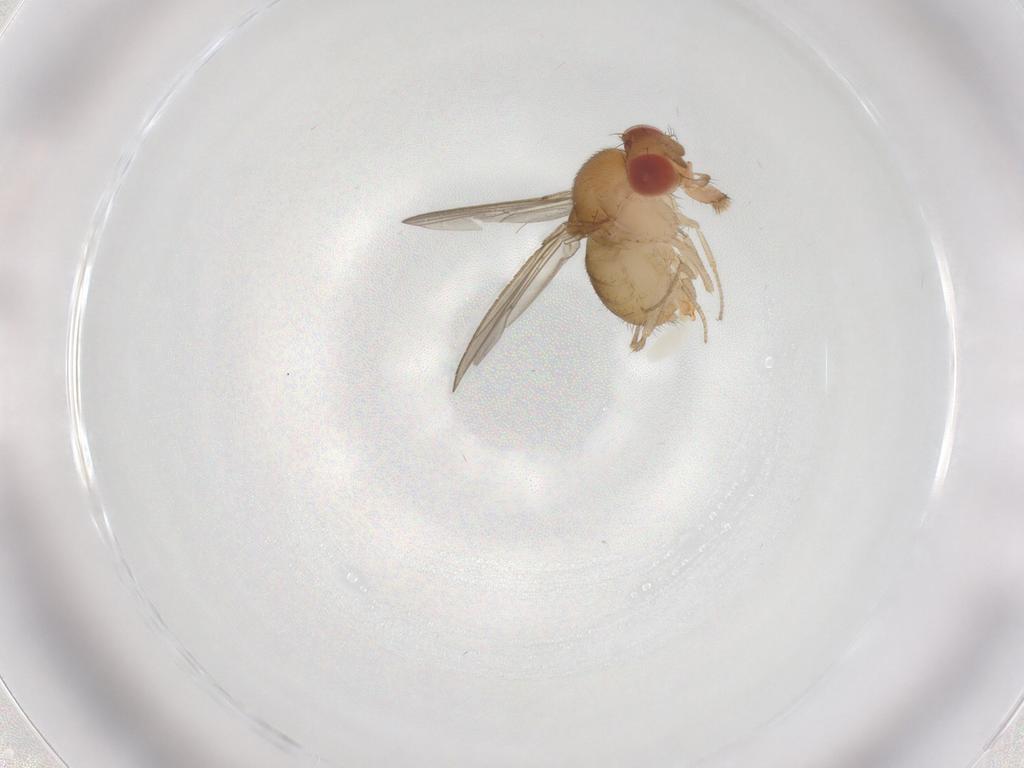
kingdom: Animalia
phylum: Arthropoda
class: Insecta
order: Diptera
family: Drosophilidae
